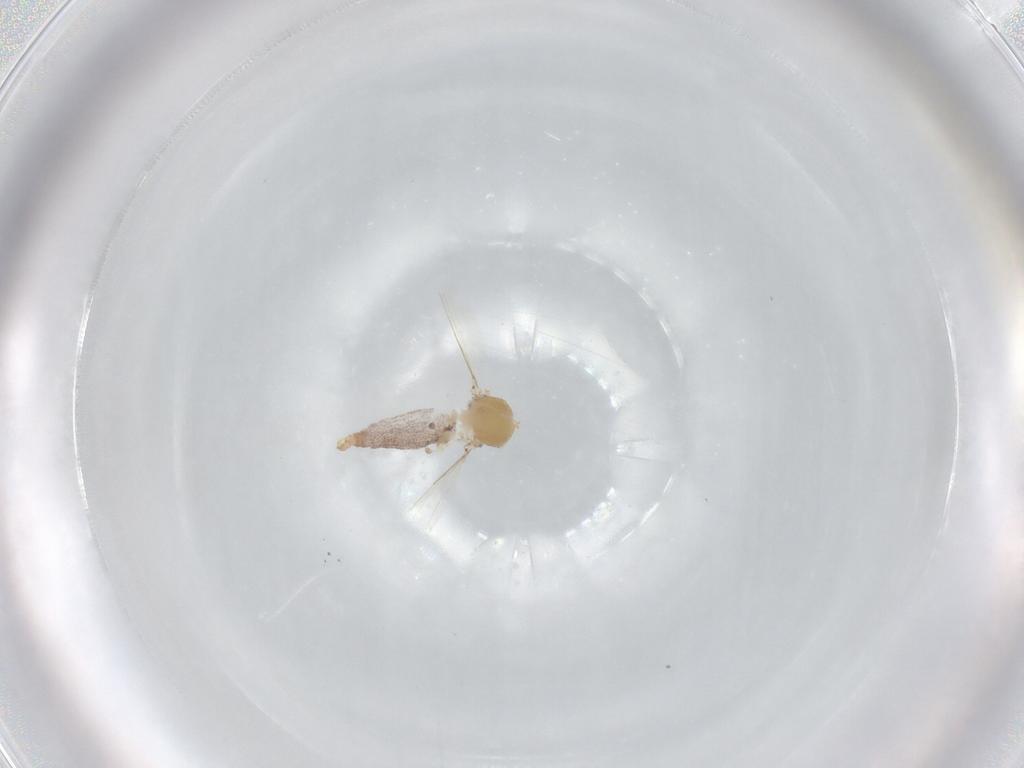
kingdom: Animalia
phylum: Arthropoda
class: Insecta
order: Diptera
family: Ceratopogonidae
